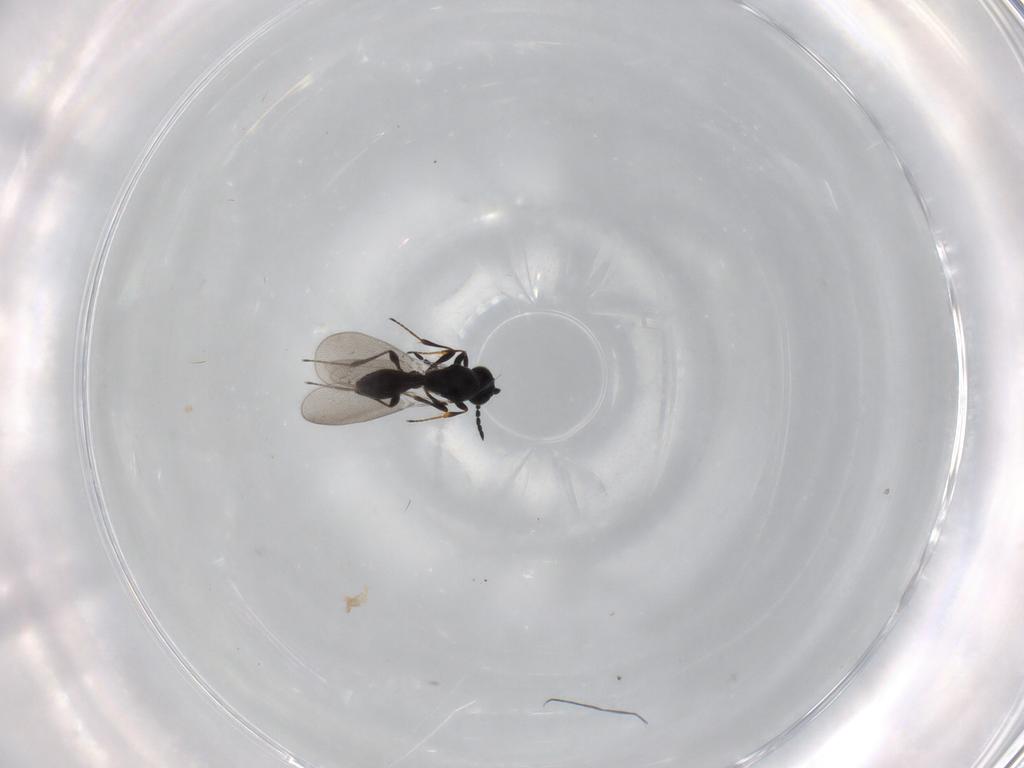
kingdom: Animalia
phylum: Arthropoda
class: Insecta
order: Hymenoptera
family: Platygastridae
